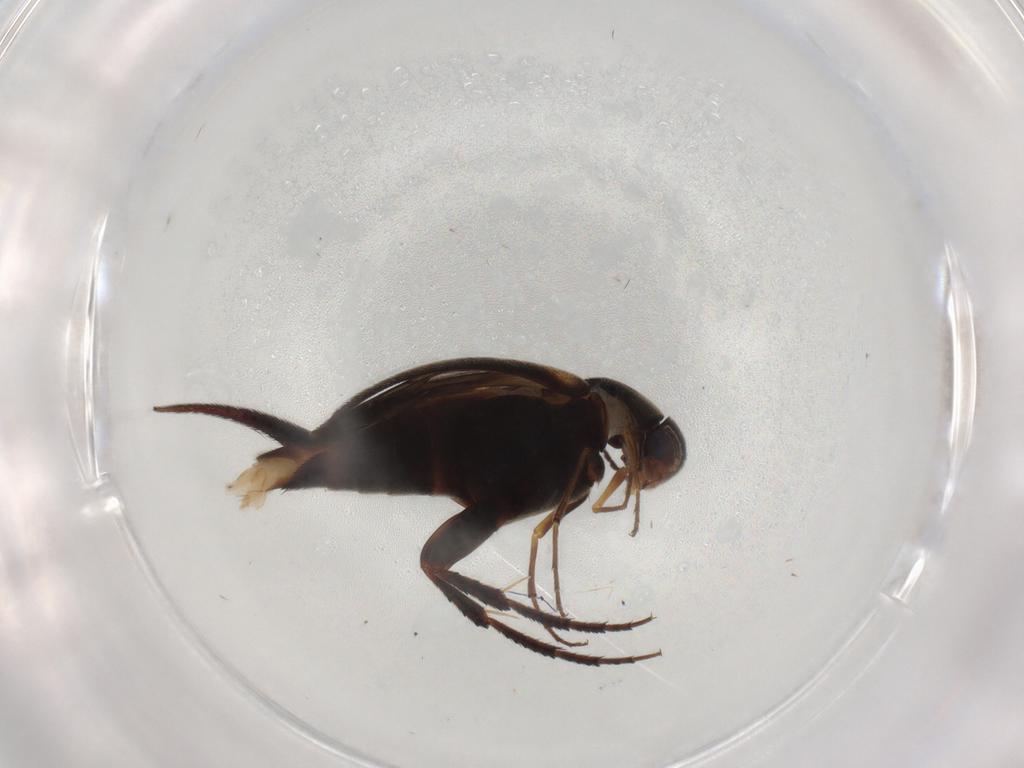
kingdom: Animalia
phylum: Arthropoda
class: Insecta
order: Coleoptera
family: Mordellidae
